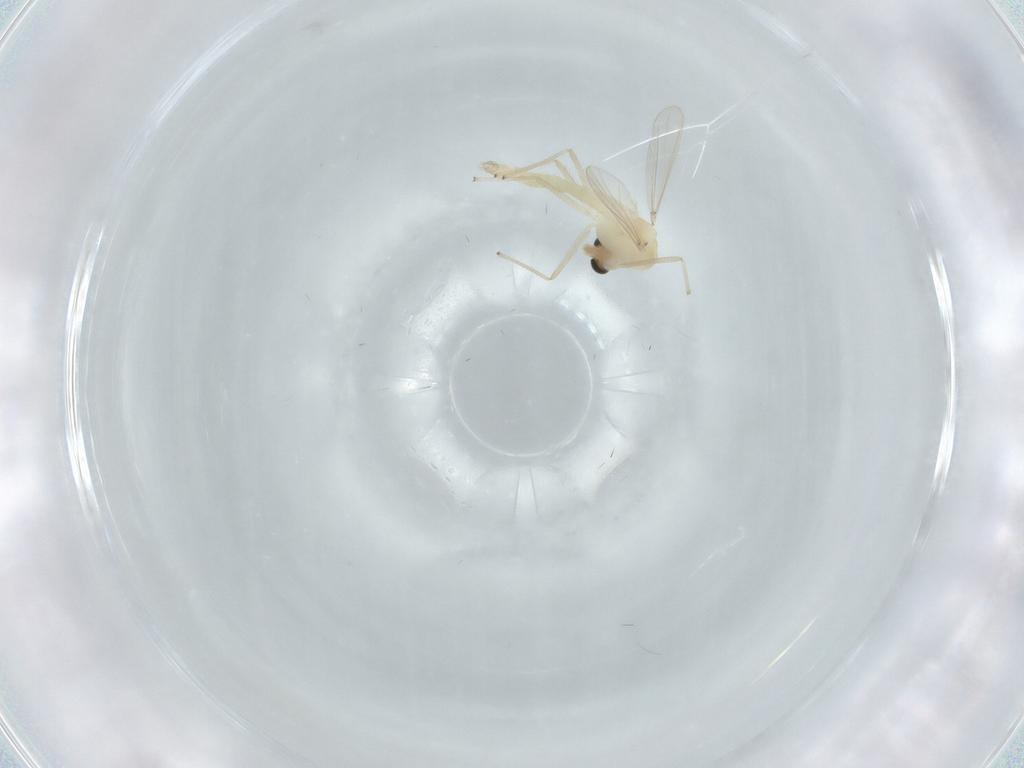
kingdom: Animalia
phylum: Arthropoda
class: Insecta
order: Diptera
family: Chironomidae
